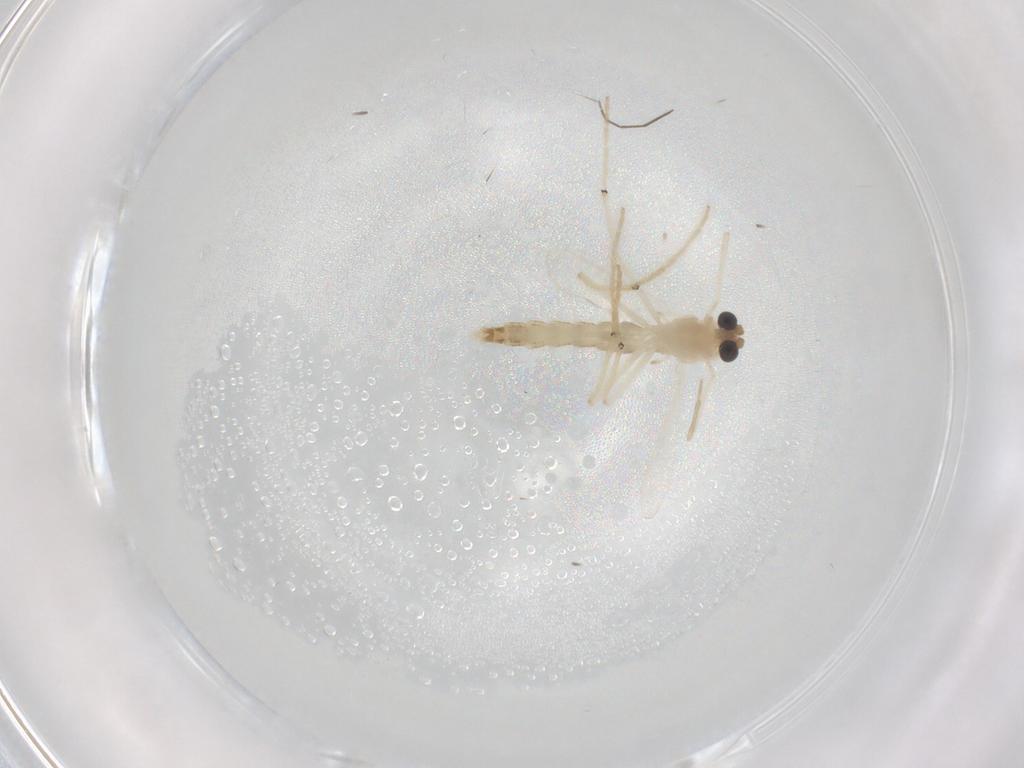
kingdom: Animalia
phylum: Arthropoda
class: Insecta
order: Diptera
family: Chironomidae
